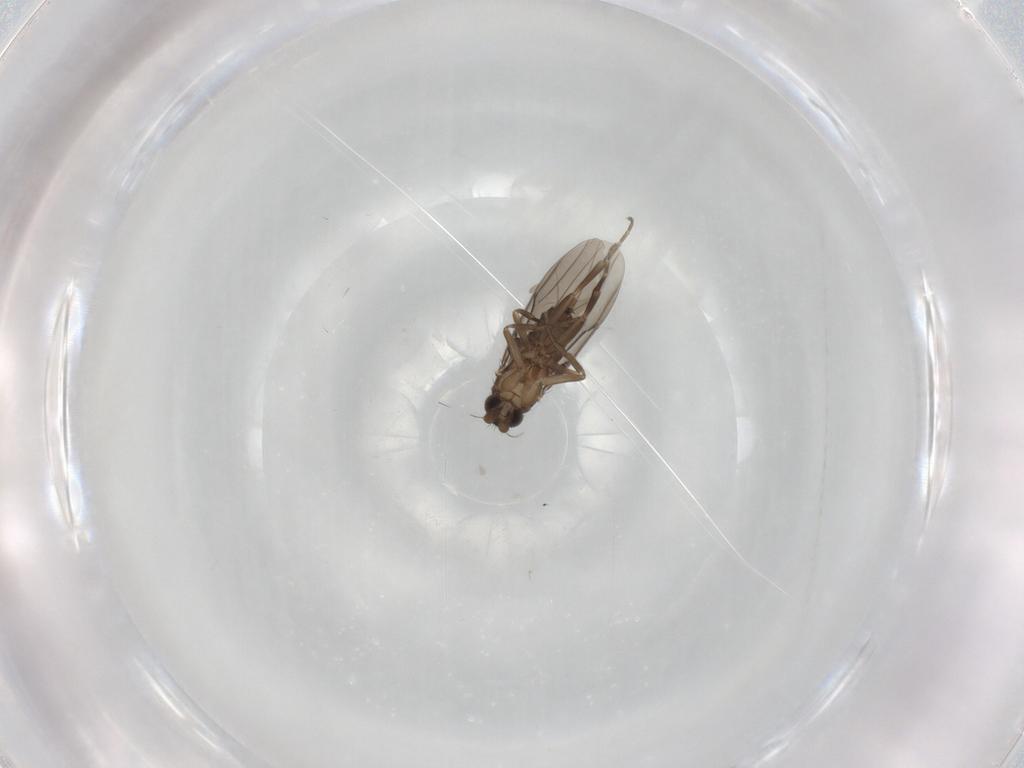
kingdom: Animalia
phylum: Arthropoda
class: Insecta
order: Diptera
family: Phoridae
